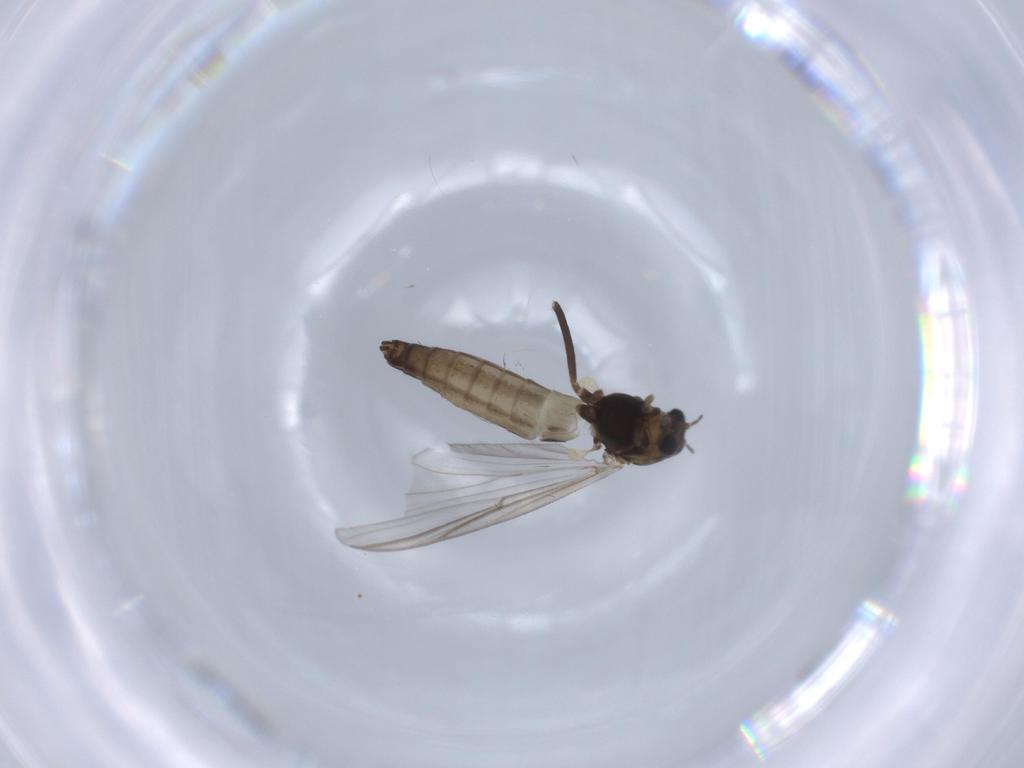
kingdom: Animalia
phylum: Arthropoda
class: Insecta
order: Diptera
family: Chironomidae
